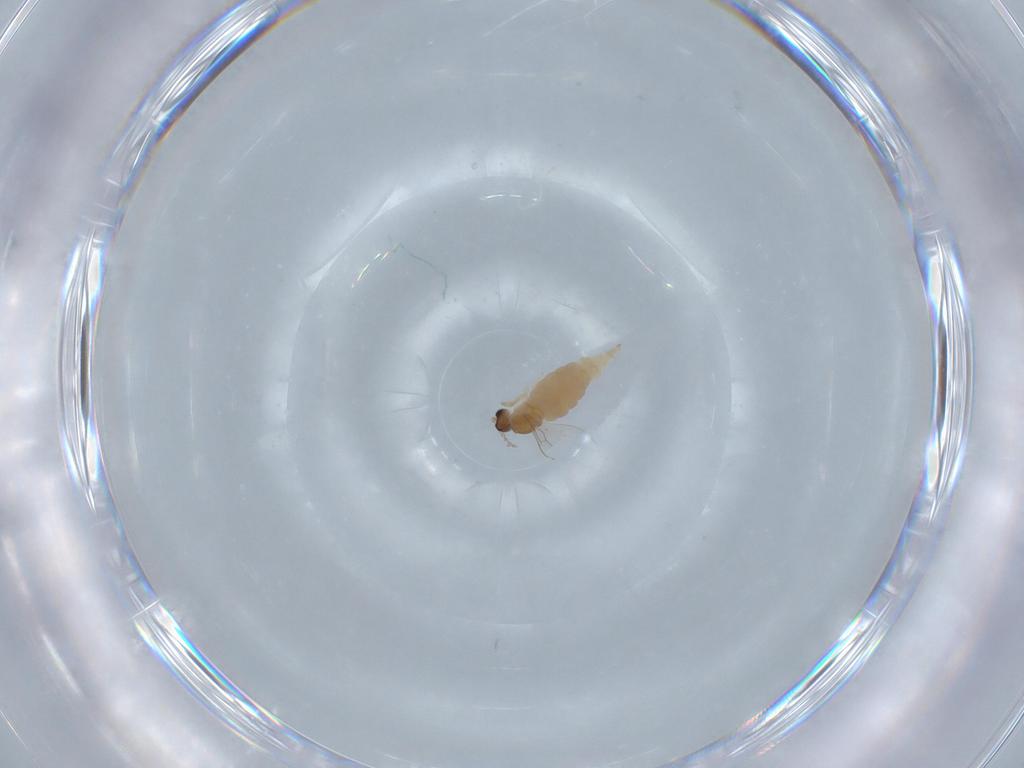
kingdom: Animalia
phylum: Arthropoda
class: Insecta
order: Diptera
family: Cecidomyiidae
